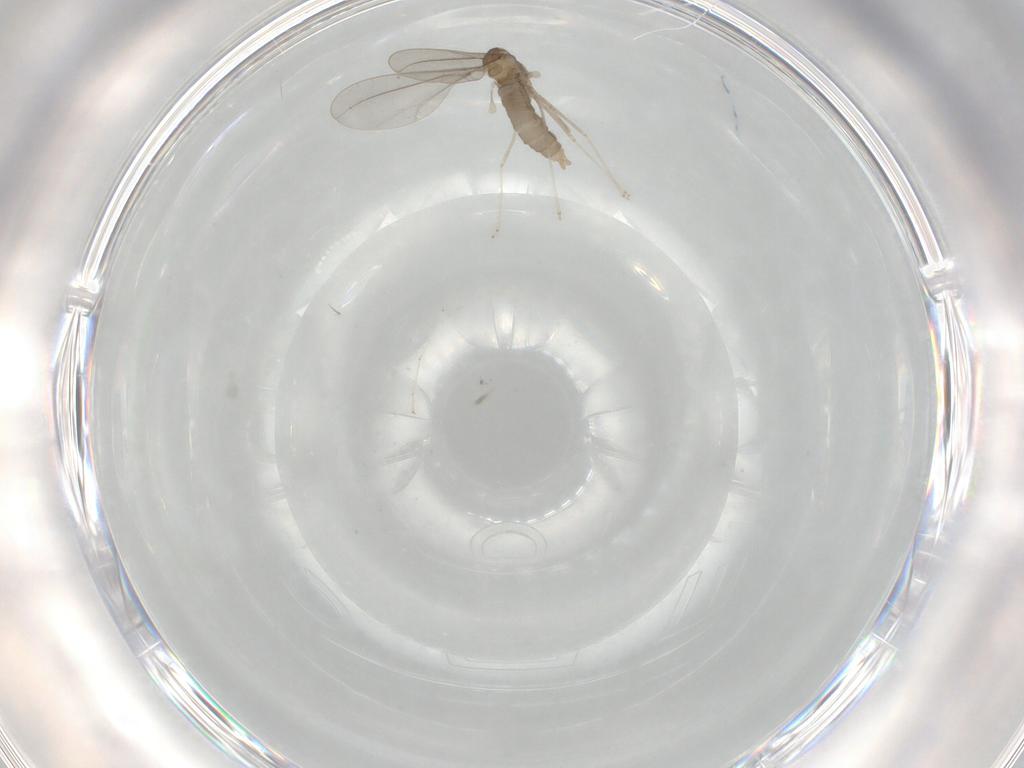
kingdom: Animalia
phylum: Arthropoda
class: Insecta
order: Diptera
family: Cecidomyiidae
